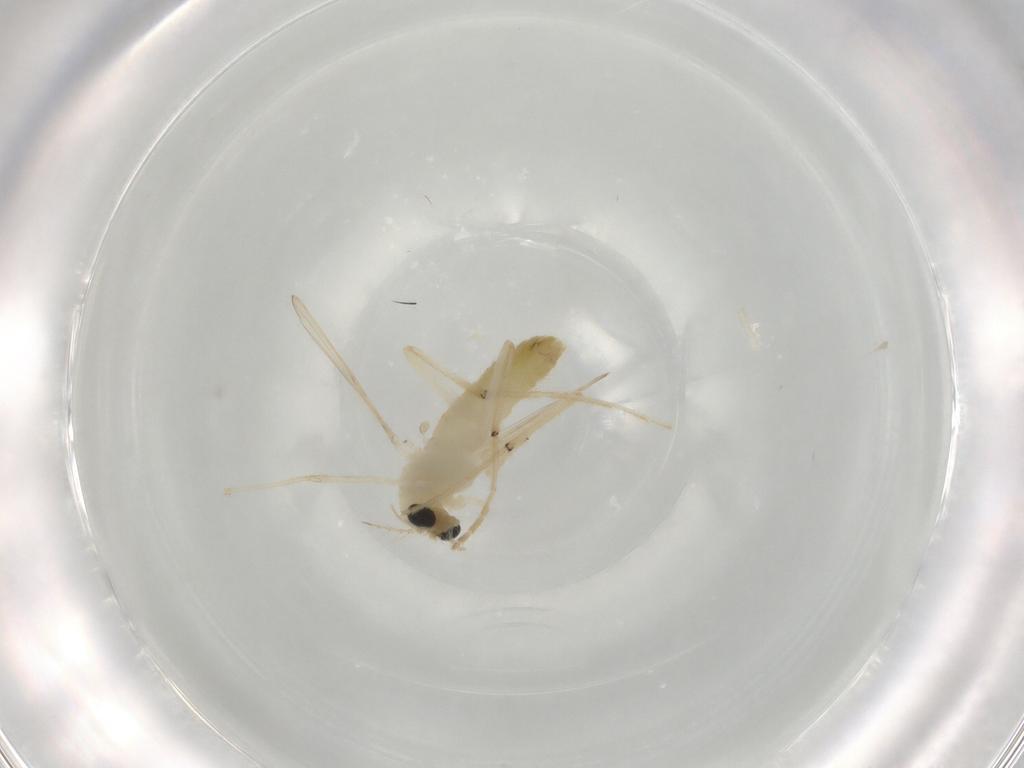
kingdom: Animalia
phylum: Arthropoda
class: Insecta
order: Diptera
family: Chironomidae
